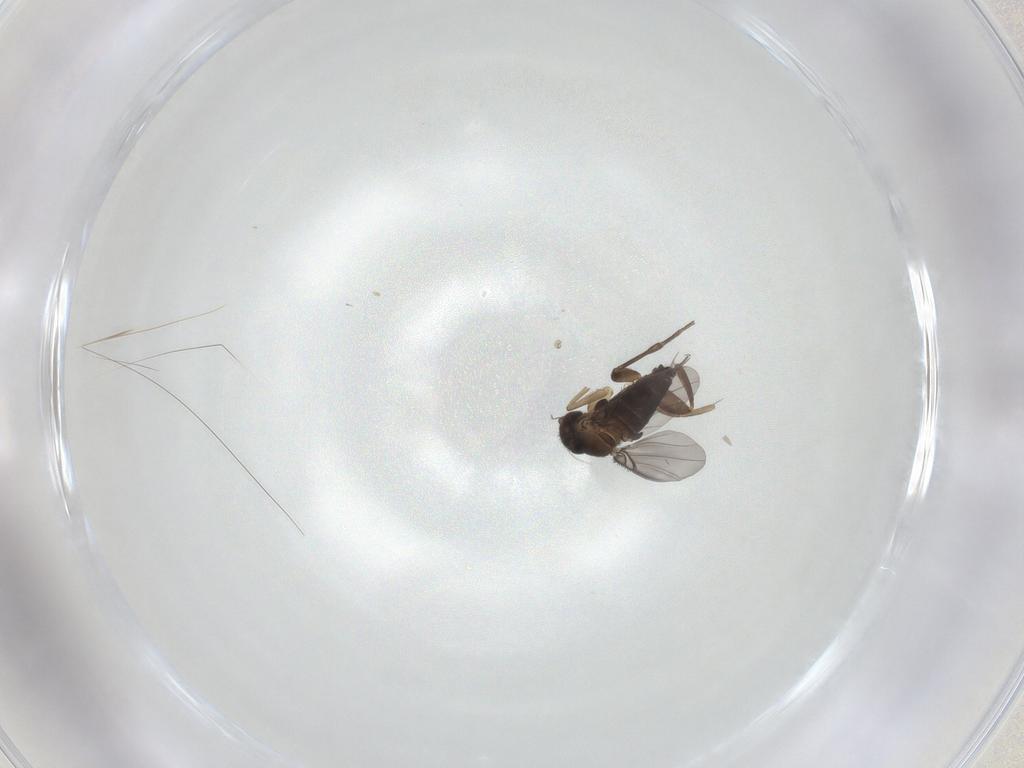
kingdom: Animalia
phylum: Arthropoda
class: Insecta
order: Diptera
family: Phoridae
